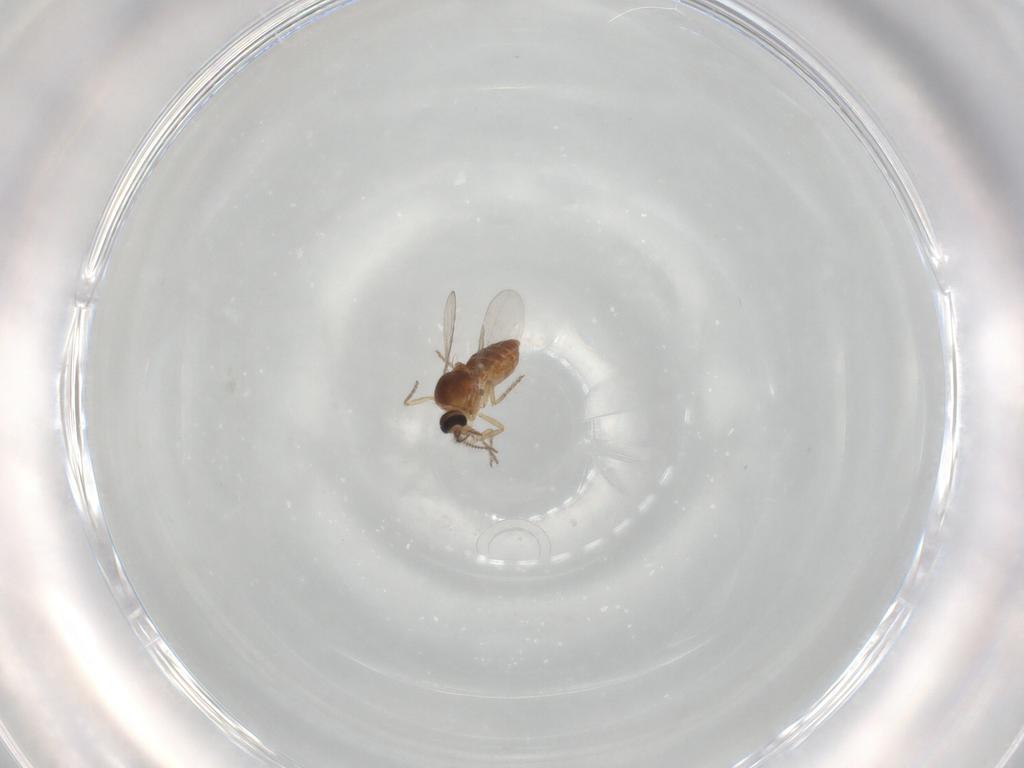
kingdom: Animalia
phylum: Arthropoda
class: Insecta
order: Diptera
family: Ceratopogonidae
